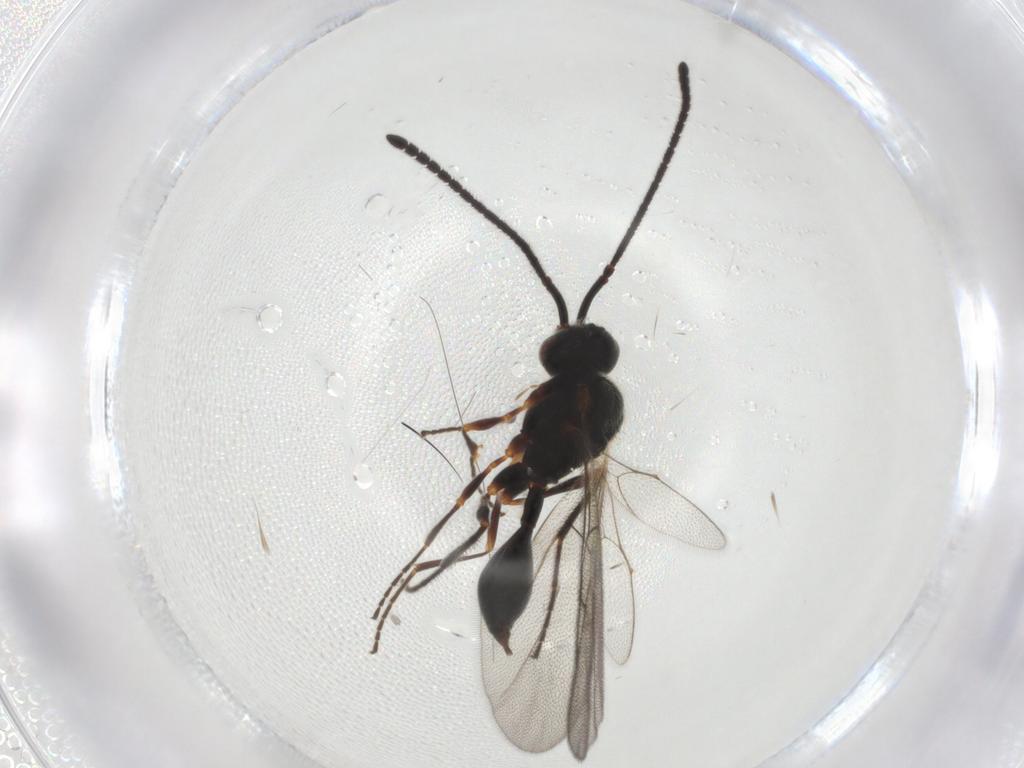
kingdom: Animalia
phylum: Arthropoda
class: Insecta
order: Hymenoptera
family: Diapriidae
